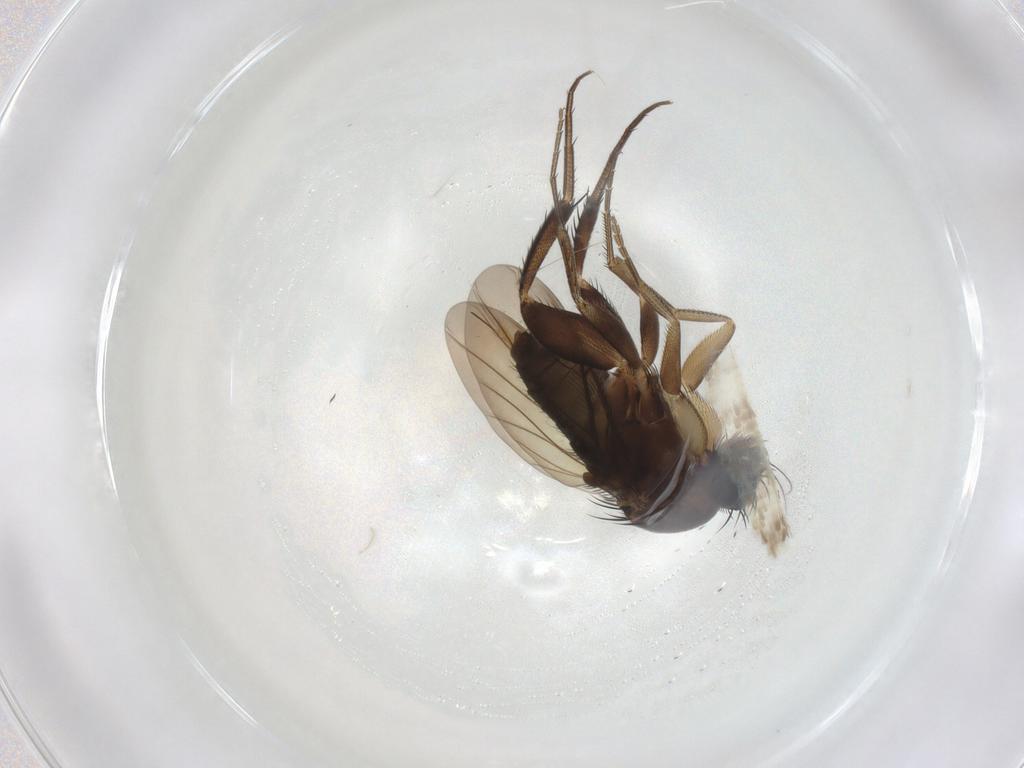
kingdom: Animalia
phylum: Arthropoda
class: Insecta
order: Diptera
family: Phoridae
